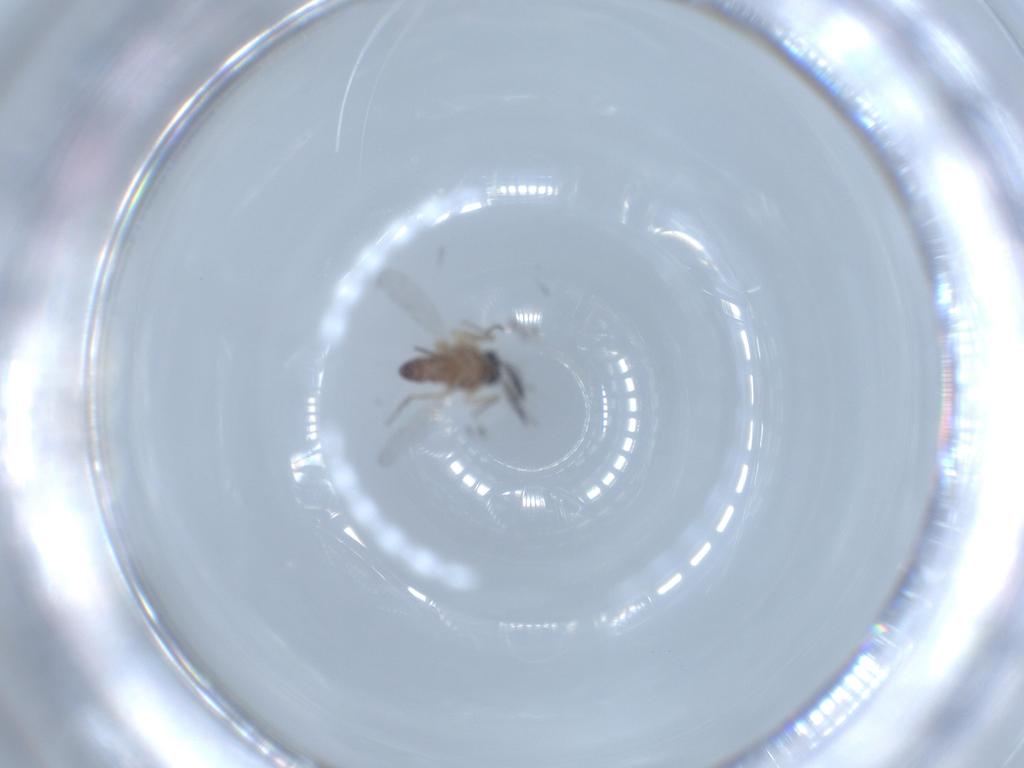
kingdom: Animalia
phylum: Arthropoda
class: Insecta
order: Diptera
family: Ceratopogonidae
